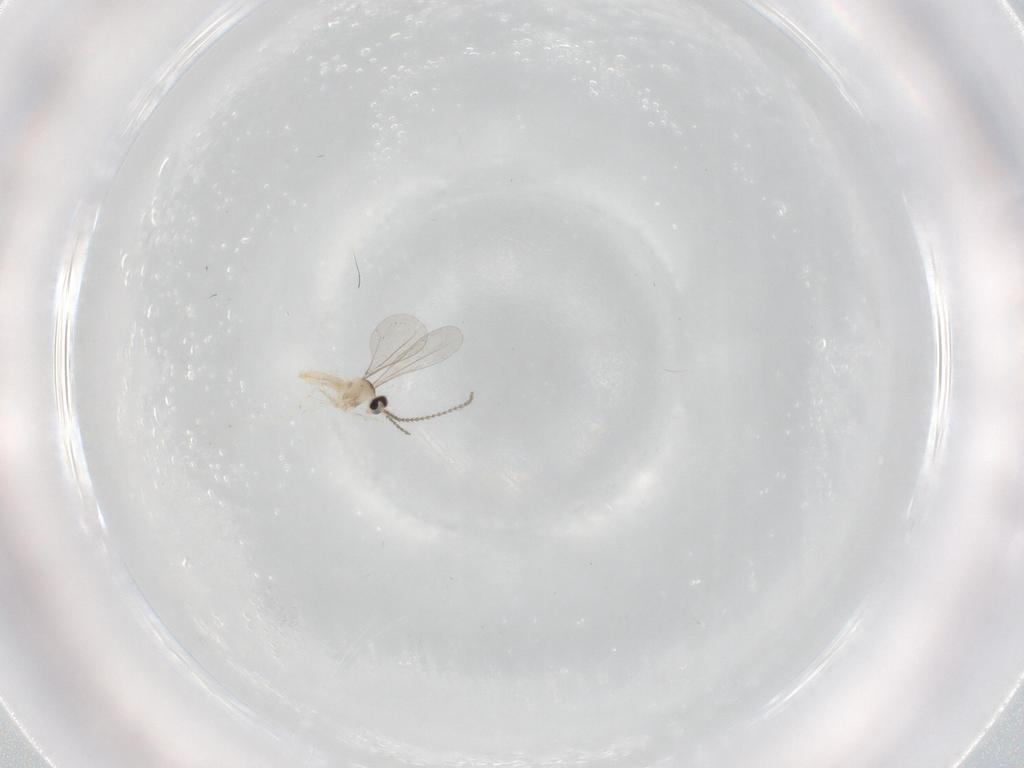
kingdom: Animalia
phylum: Arthropoda
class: Insecta
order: Diptera
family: Cecidomyiidae
